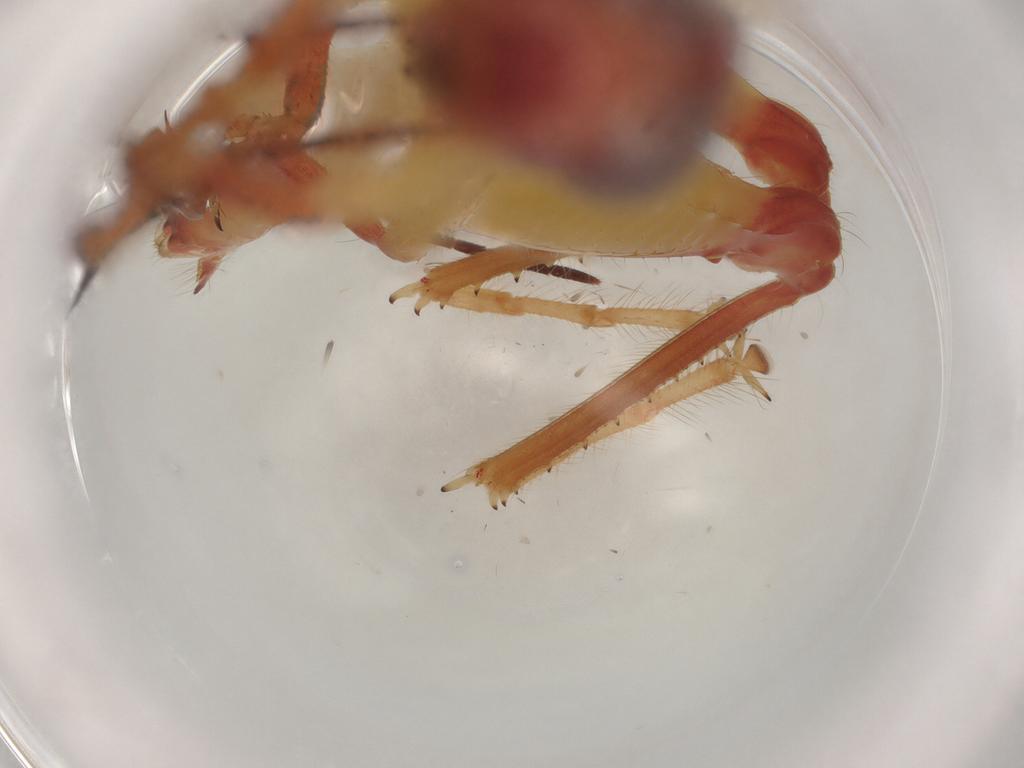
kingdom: Animalia
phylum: Arthropoda
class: Insecta
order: Orthoptera
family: Acrididae
